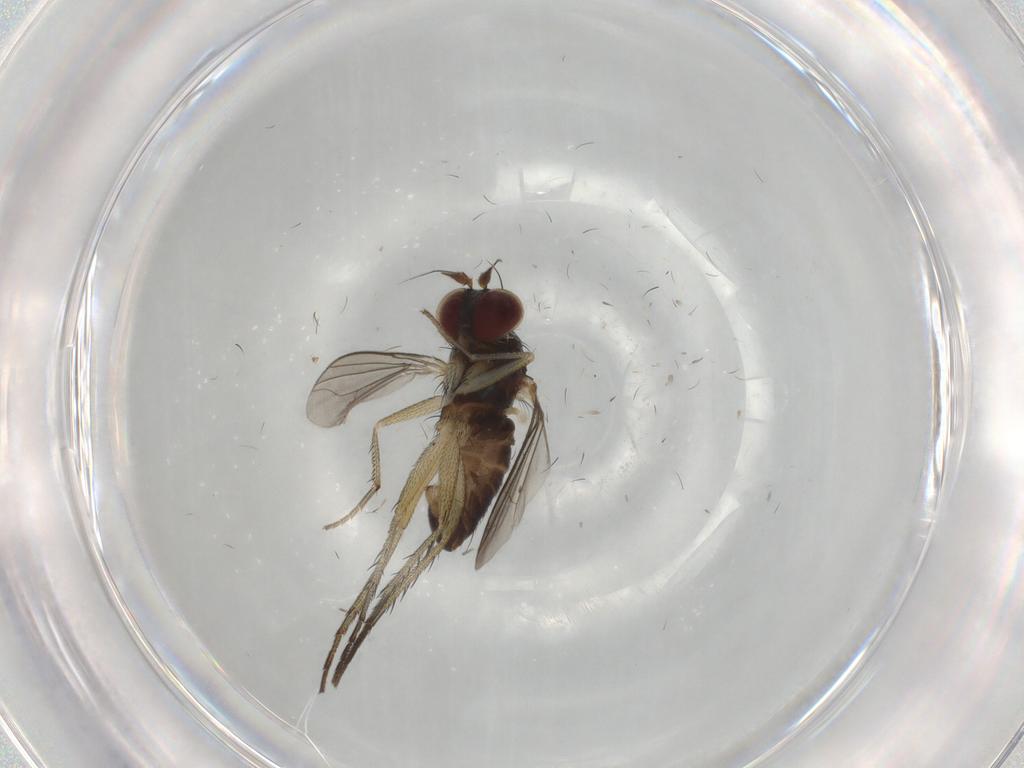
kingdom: Animalia
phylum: Arthropoda
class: Insecta
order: Diptera
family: Dolichopodidae
